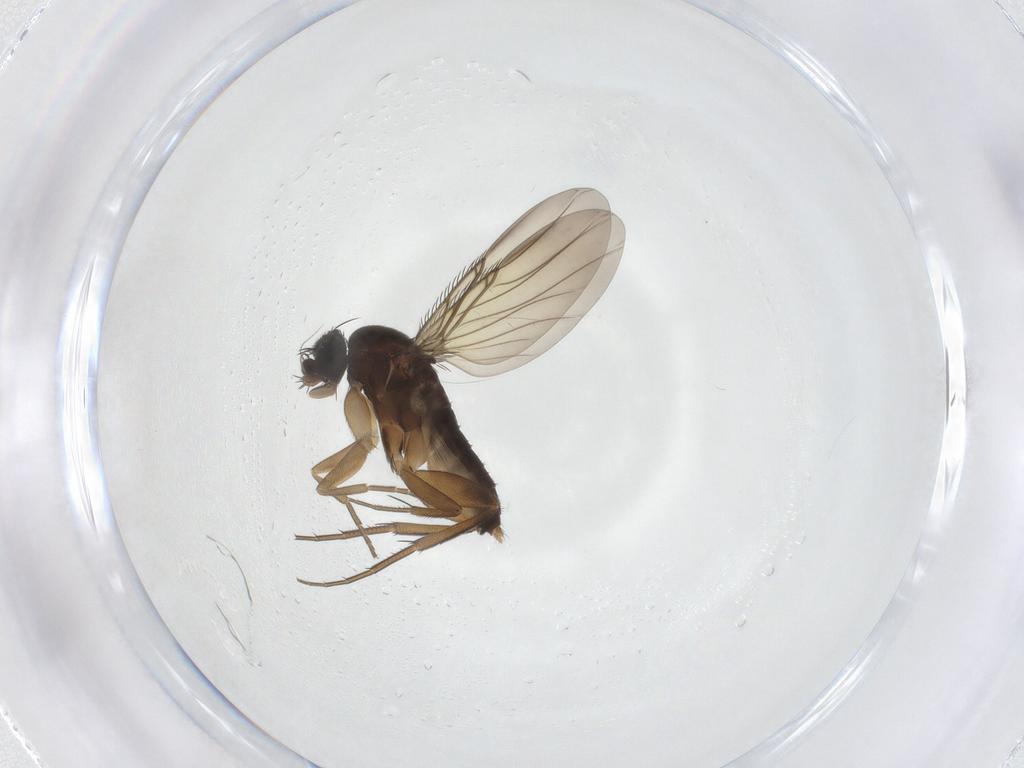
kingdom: Animalia
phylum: Arthropoda
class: Insecta
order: Diptera
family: Phoridae
